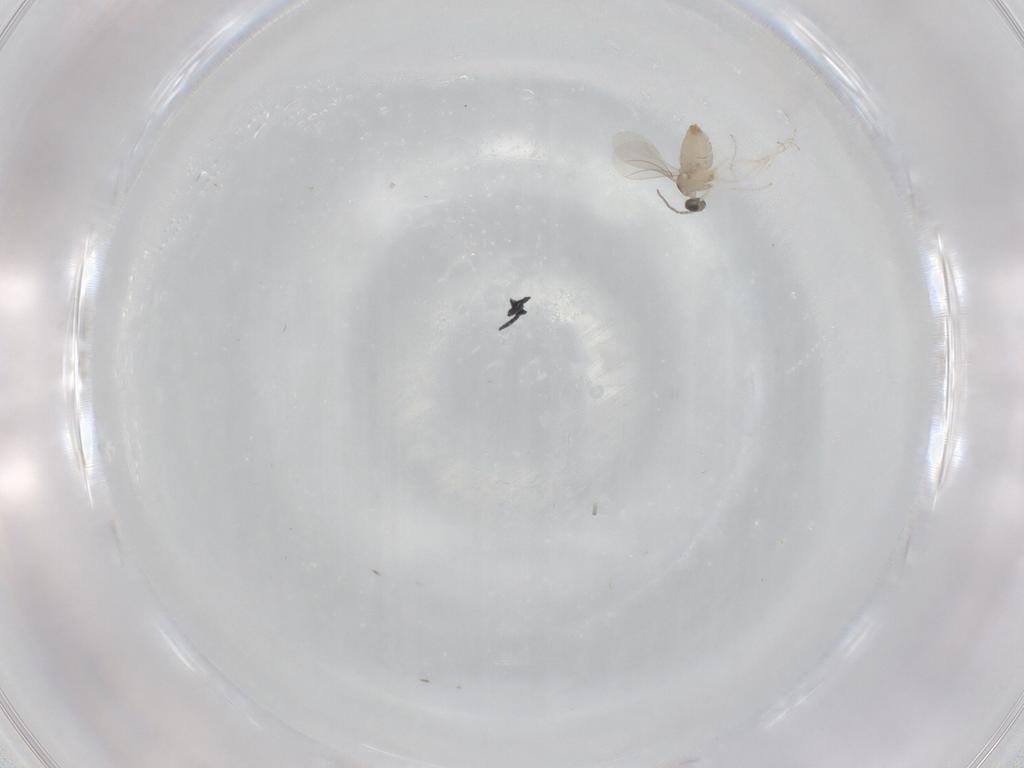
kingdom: Animalia
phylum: Arthropoda
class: Insecta
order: Diptera
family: Cecidomyiidae
